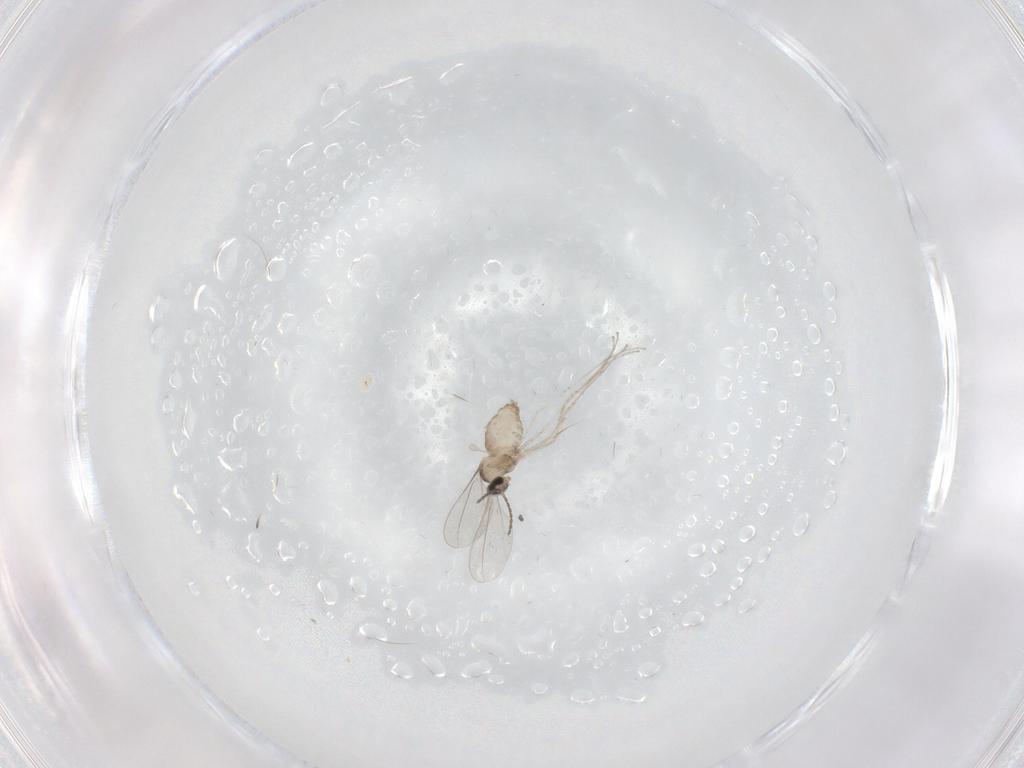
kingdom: Animalia
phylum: Arthropoda
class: Insecta
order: Diptera
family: Cecidomyiidae
